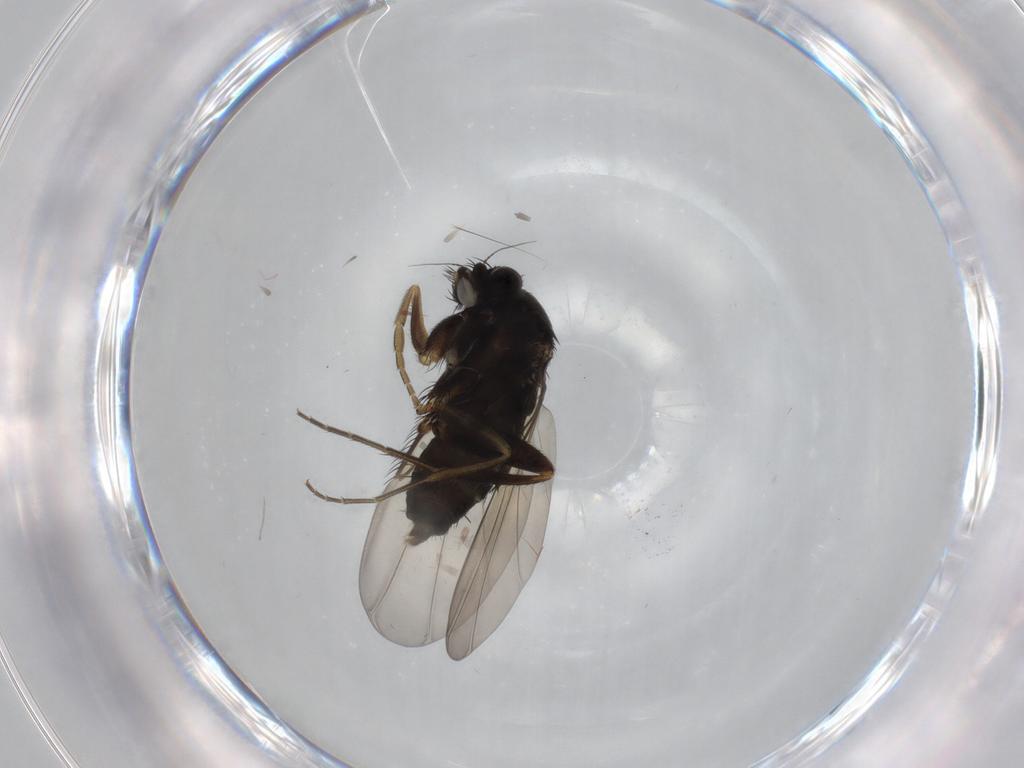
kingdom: Animalia
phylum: Arthropoda
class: Insecta
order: Diptera
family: Phoridae
